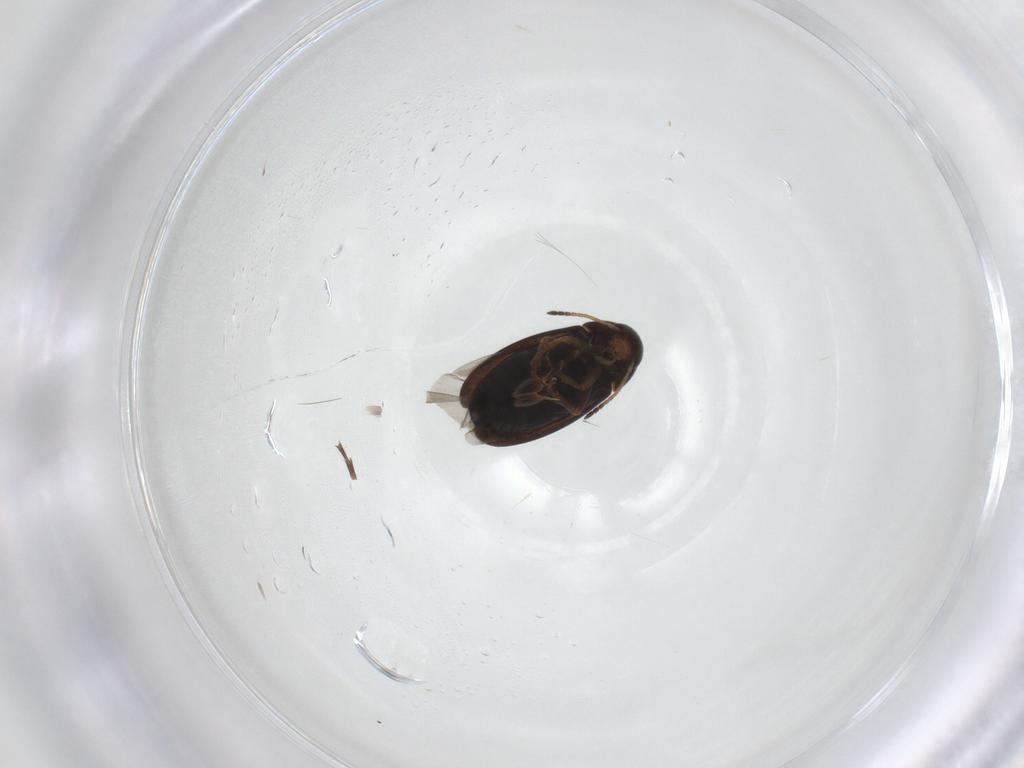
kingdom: Animalia
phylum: Arthropoda
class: Insecta
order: Coleoptera
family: Scraptiidae
